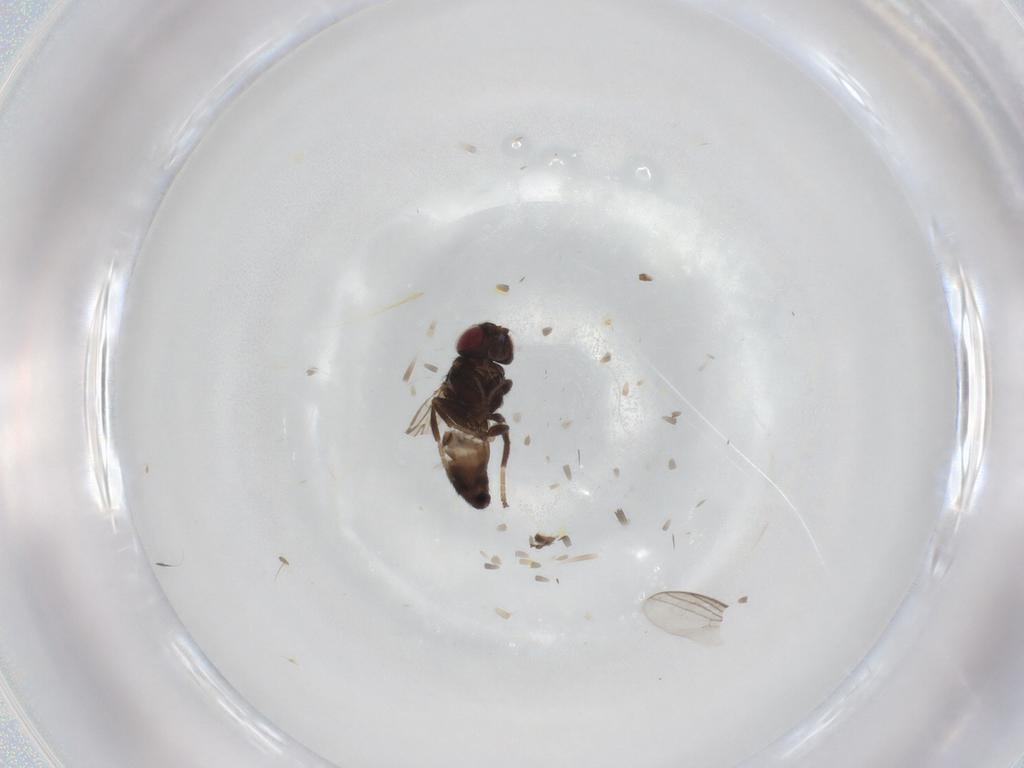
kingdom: Animalia
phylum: Arthropoda
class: Insecta
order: Diptera
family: Chloropidae
